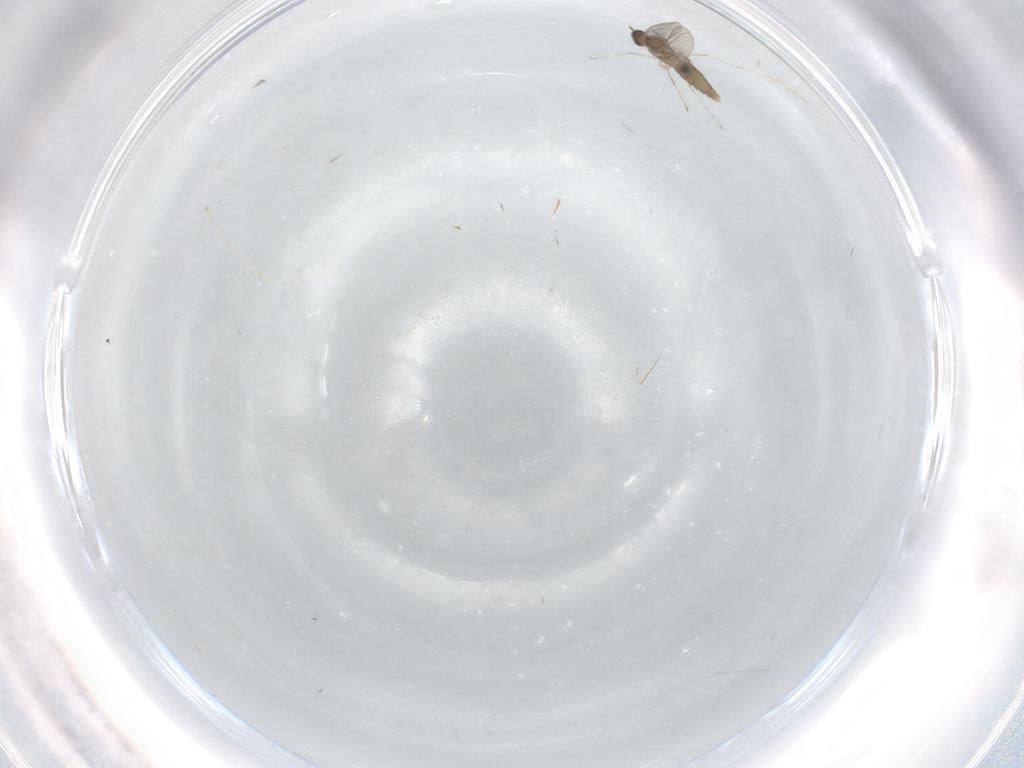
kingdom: Animalia
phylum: Arthropoda
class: Insecta
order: Diptera
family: Cecidomyiidae
